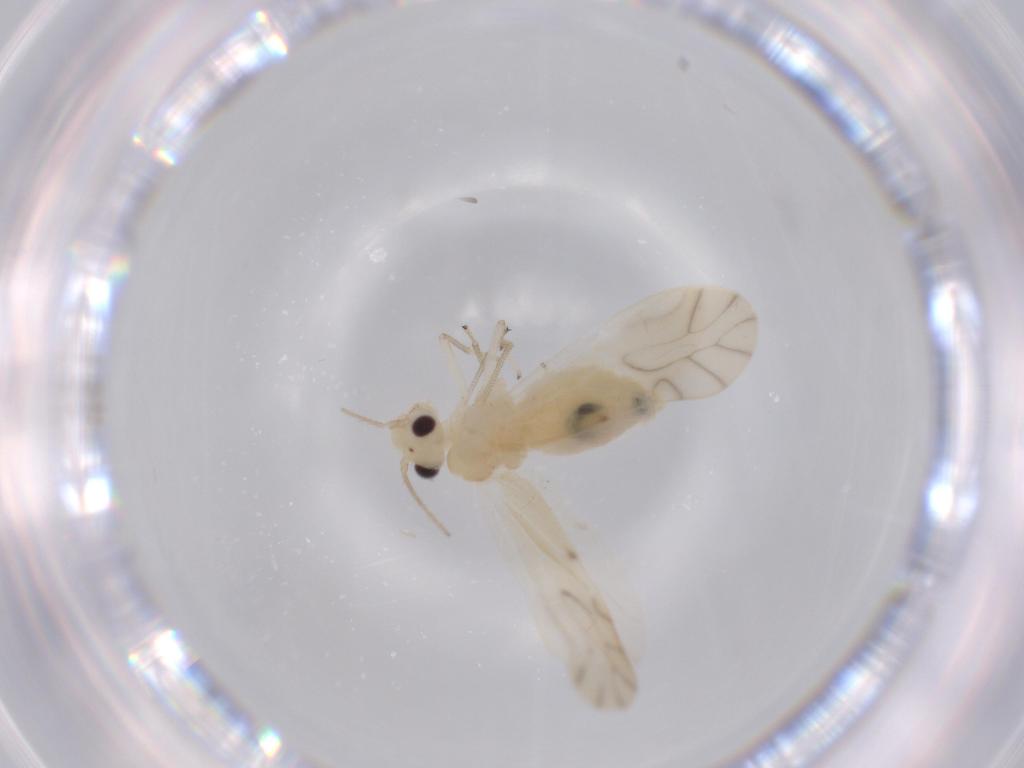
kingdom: Animalia
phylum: Arthropoda
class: Insecta
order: Psocodea
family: Caeciliusidae
